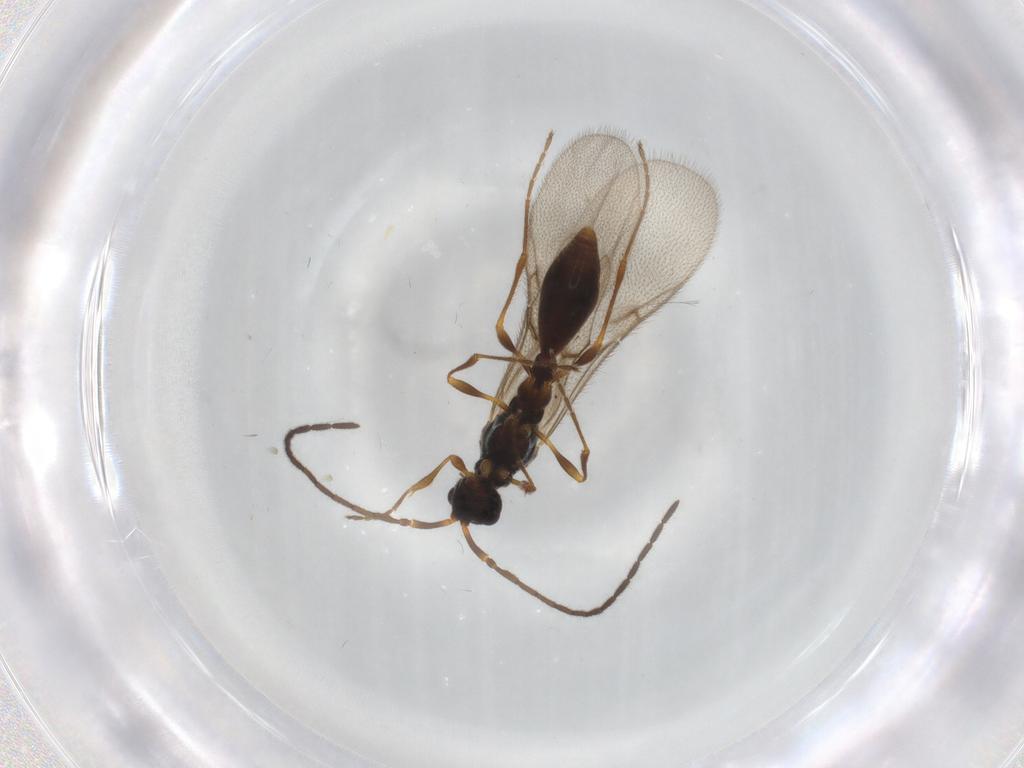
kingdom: Animalia
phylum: Arthropoda
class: Insecta
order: Hymenoptera
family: Diapriidae
